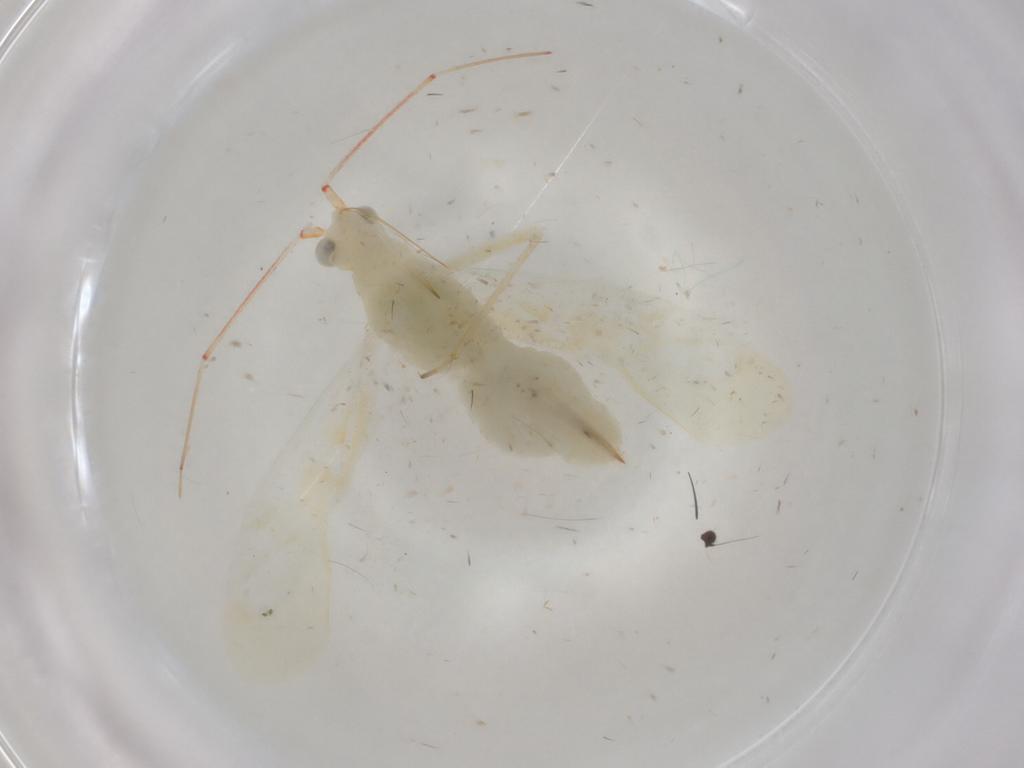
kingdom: Animalia
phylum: Arthropoda
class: Insecta
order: Hemiptera
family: Miridae
